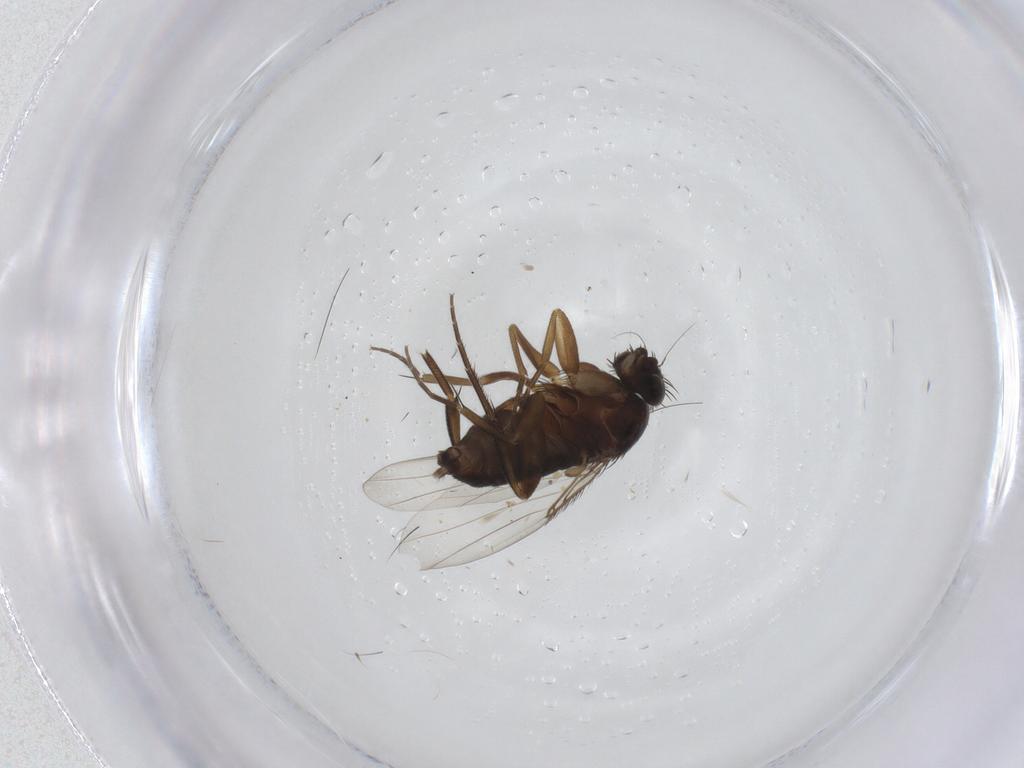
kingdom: Animalia
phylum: Arthropoda
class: Insecta
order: Diptera
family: Phoridae
